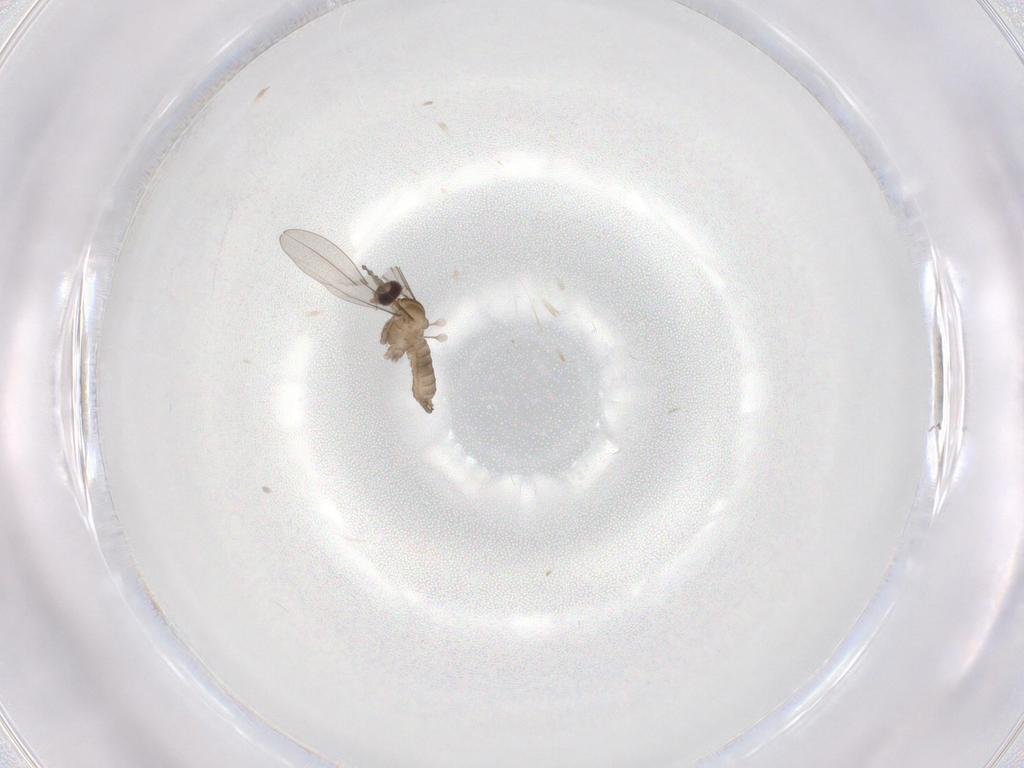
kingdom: Animalia
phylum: Arthropoda
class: Insecta
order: Diptera
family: Cecidomyiidae
